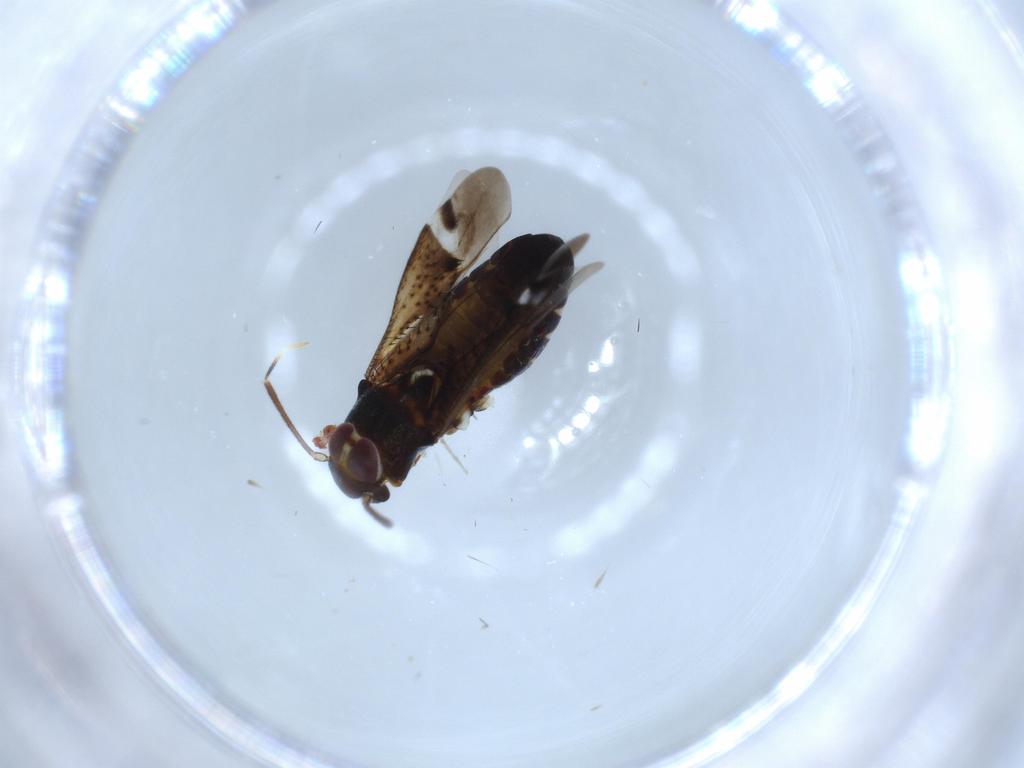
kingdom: Animalia
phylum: Arthropoda
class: Insecta
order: Hemiptera
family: Miridae
